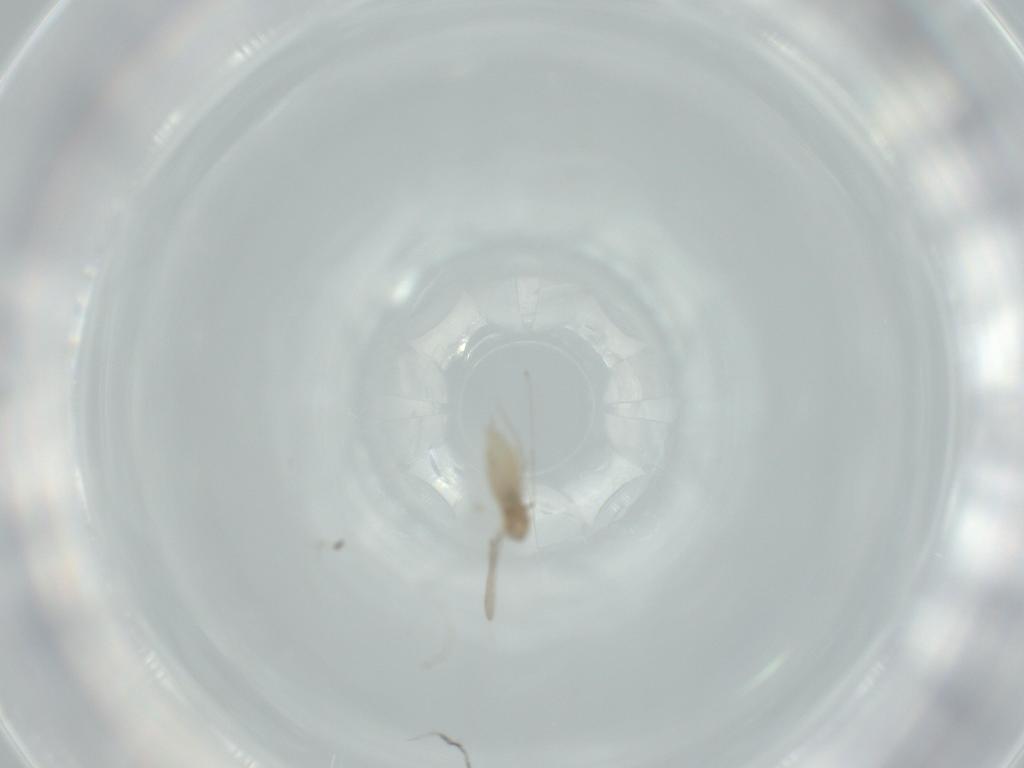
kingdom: Animalia
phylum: Arthropoda
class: Insecta
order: Diptera
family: Cecidomyiidae
